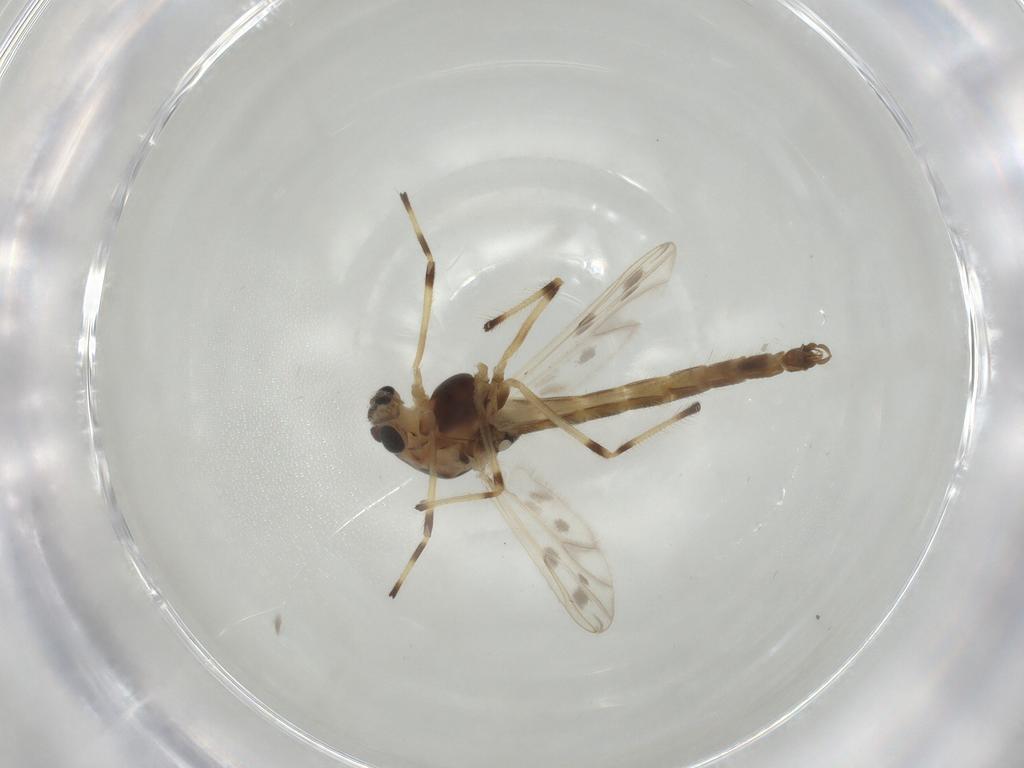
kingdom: Animalia
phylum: Arthropoda
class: Insecta
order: Diptera
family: Chironomidae
